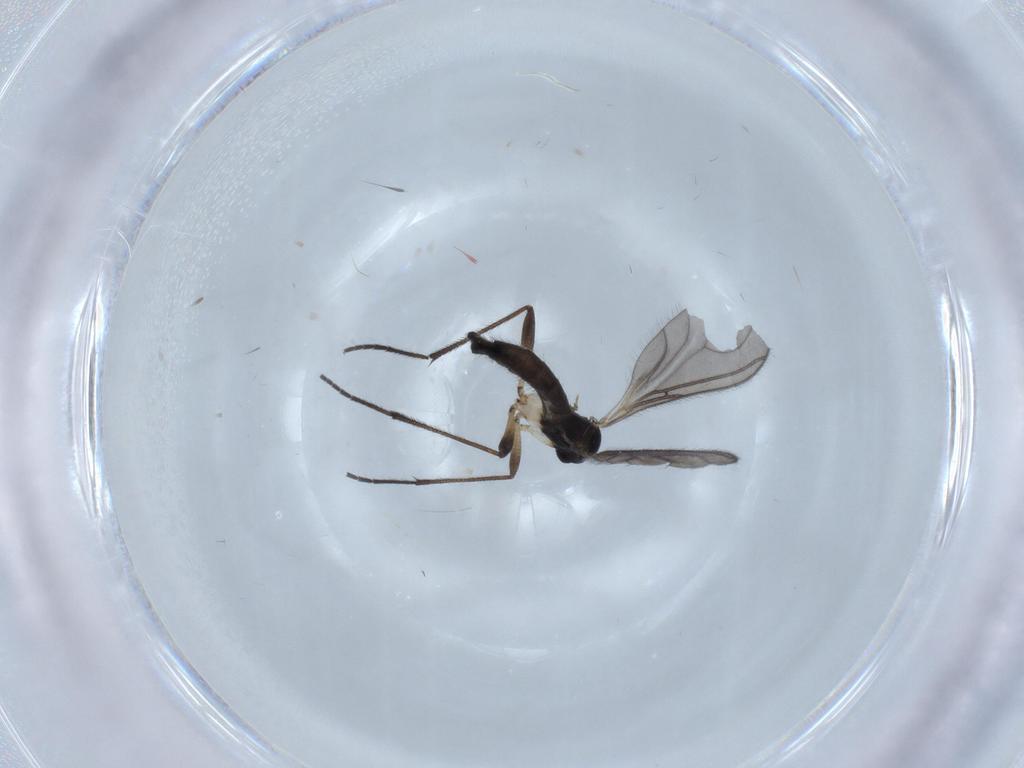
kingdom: Animalia
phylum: Arthropoda
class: Insecta
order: Diptera
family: Sciaridae
